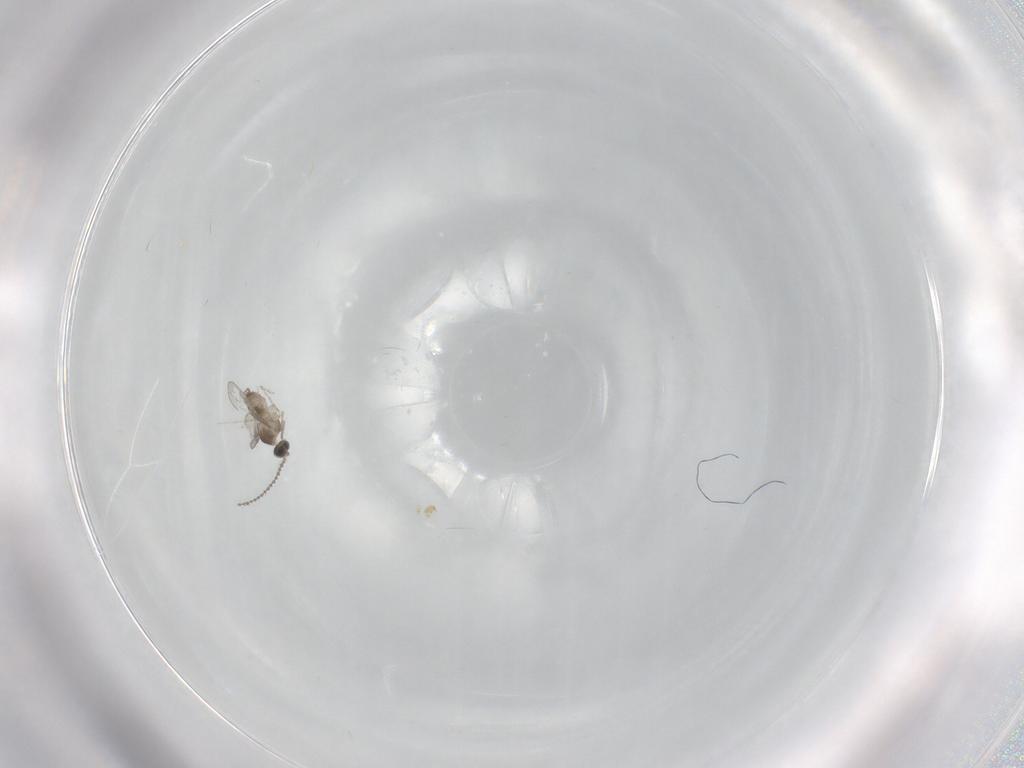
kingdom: Animalia
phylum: Arthropoda
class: Insecta
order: Diptera
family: Cecidomyiidae
